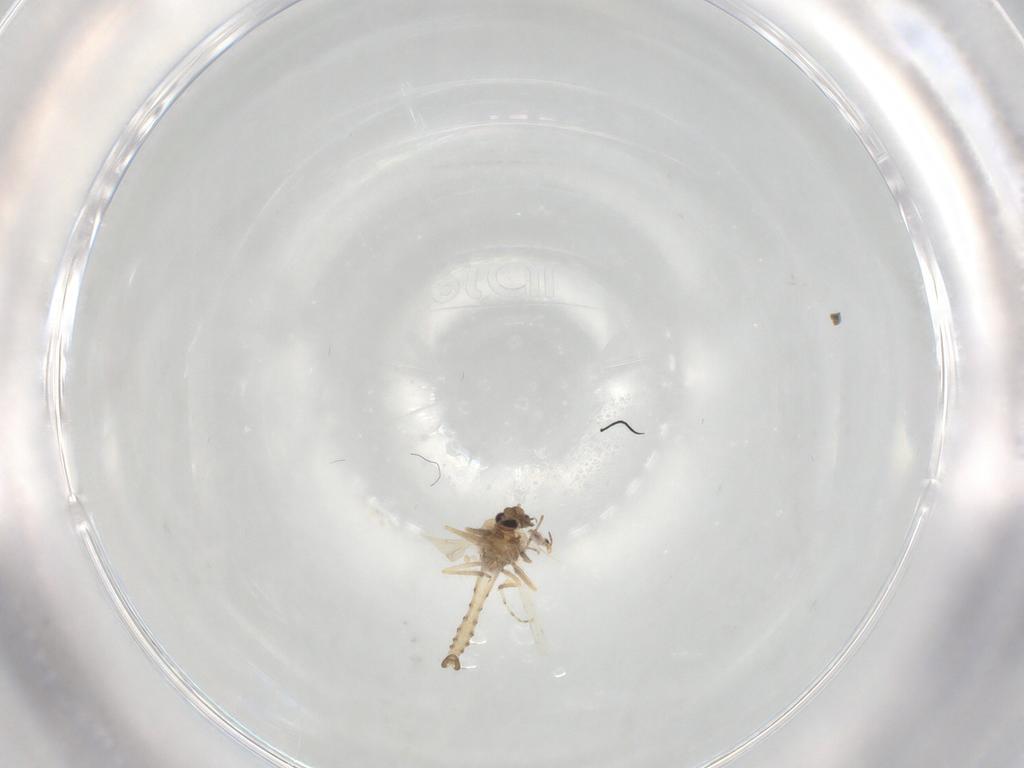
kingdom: Animalia
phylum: Arthropoda
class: Insecta
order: Diptera
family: Ceratopogonidae
